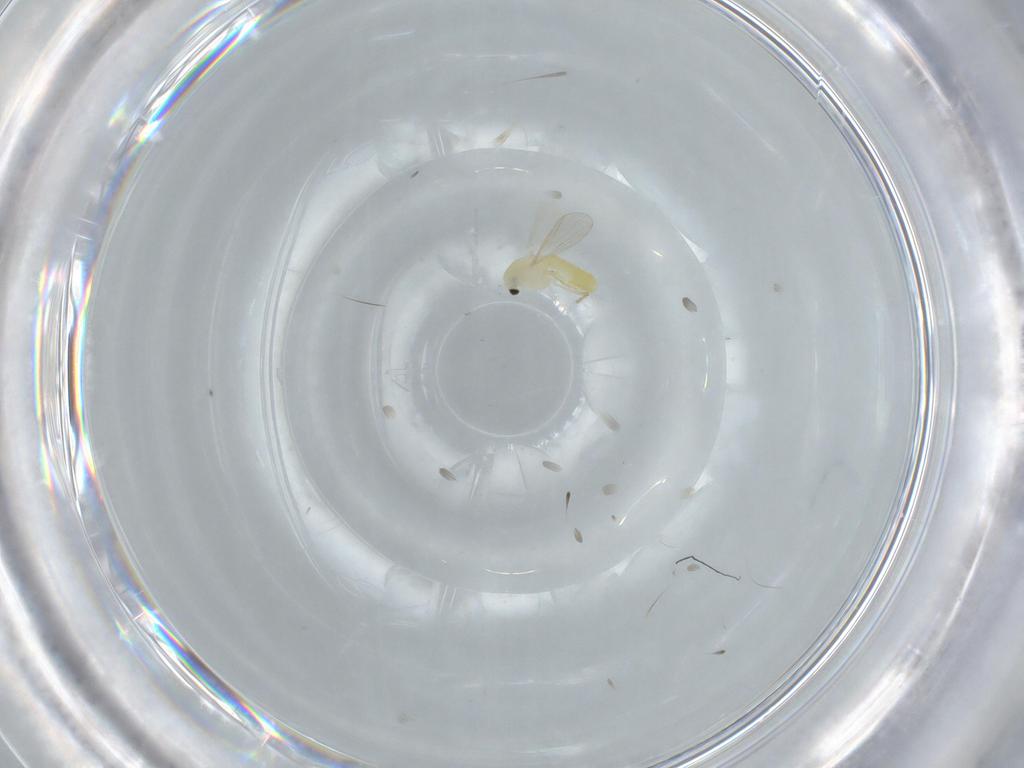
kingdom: Animalia
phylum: Arthropoda
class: Insecta
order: Diptera
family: Chironomidae
